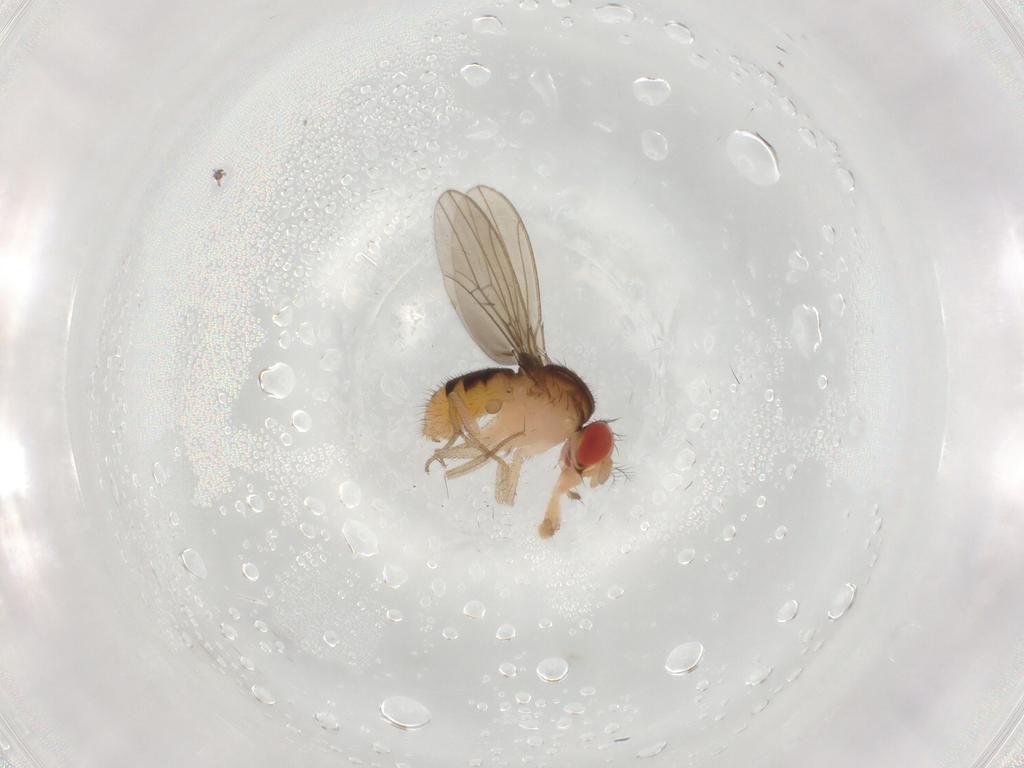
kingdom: Animalia
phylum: Arthropoda
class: Insecta
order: Diptera
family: Drosophilidae
